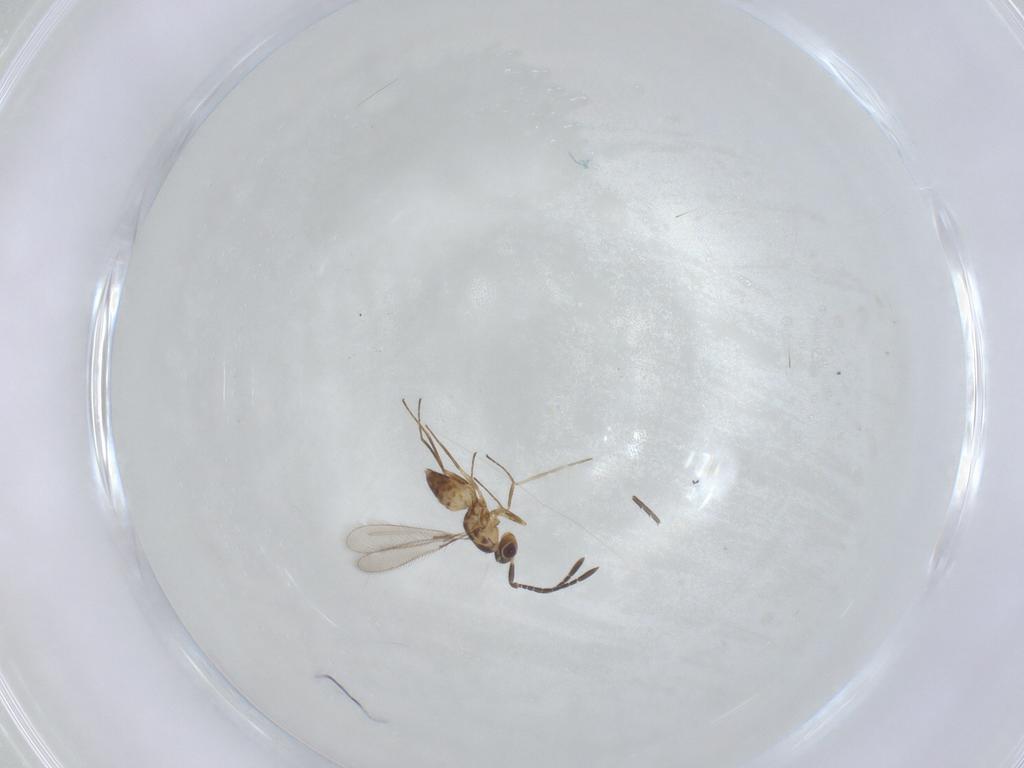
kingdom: Animalia
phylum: Arthropoda
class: Insecta
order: Hymenoptera
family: Mymaridae
